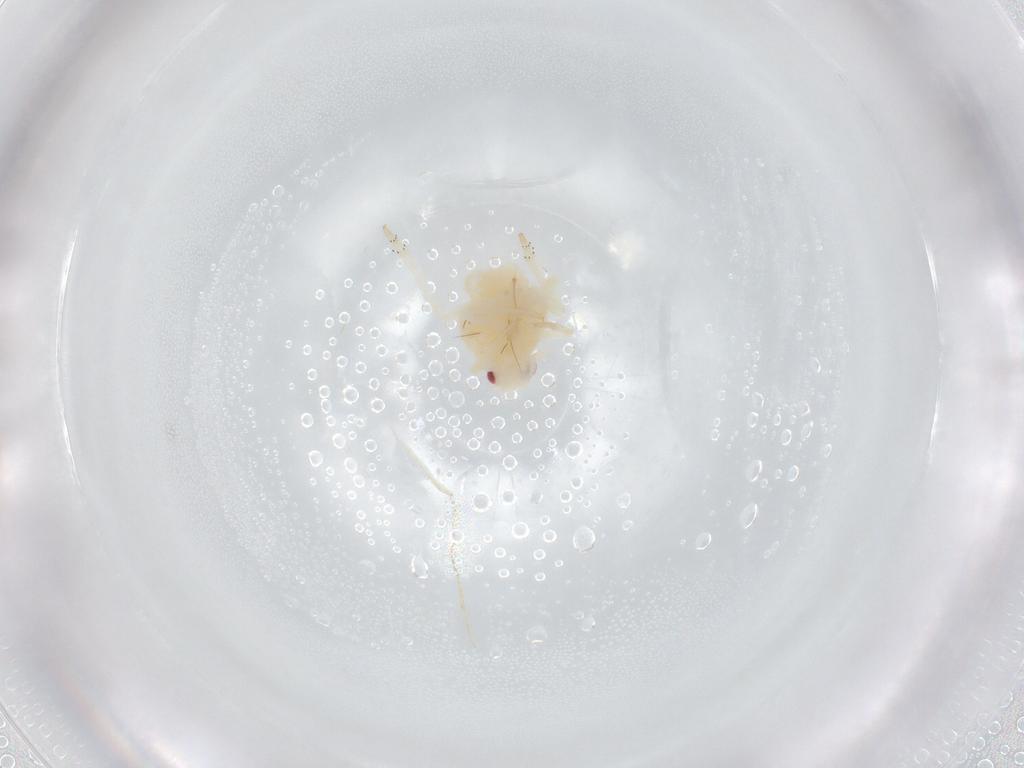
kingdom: Animalia
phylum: Arthropoda
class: Insecta
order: Hemiptera
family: Ricaniidae
